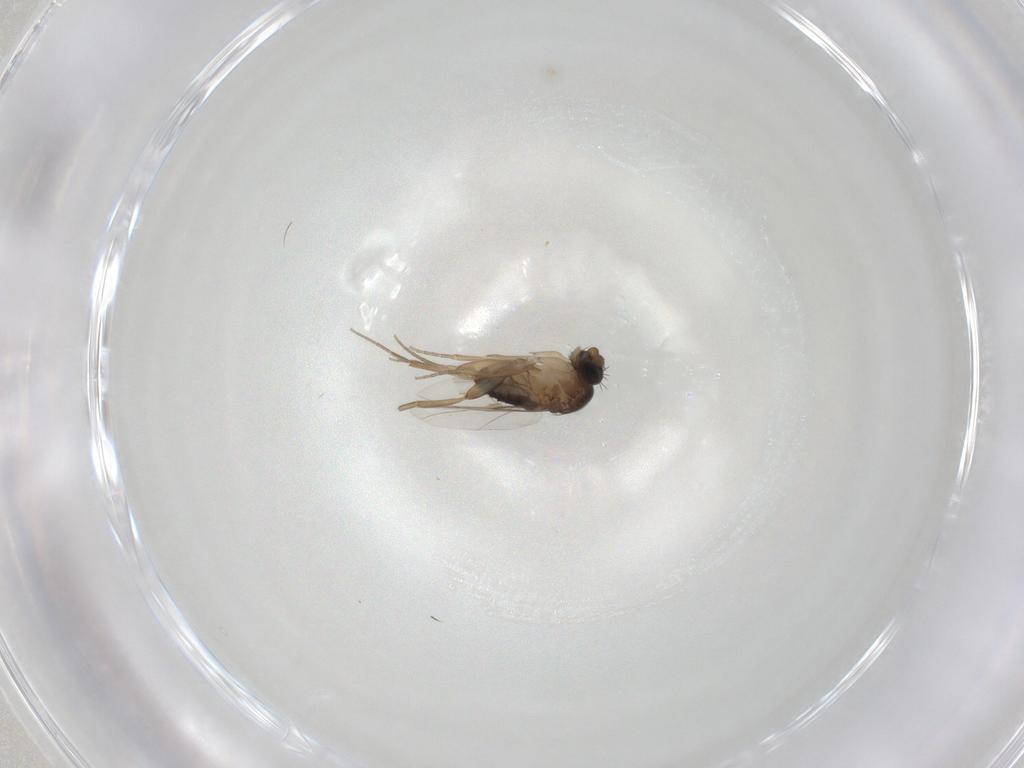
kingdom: Animalia
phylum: Arthropoda
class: Insecta
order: Diptera
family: Phoridae
